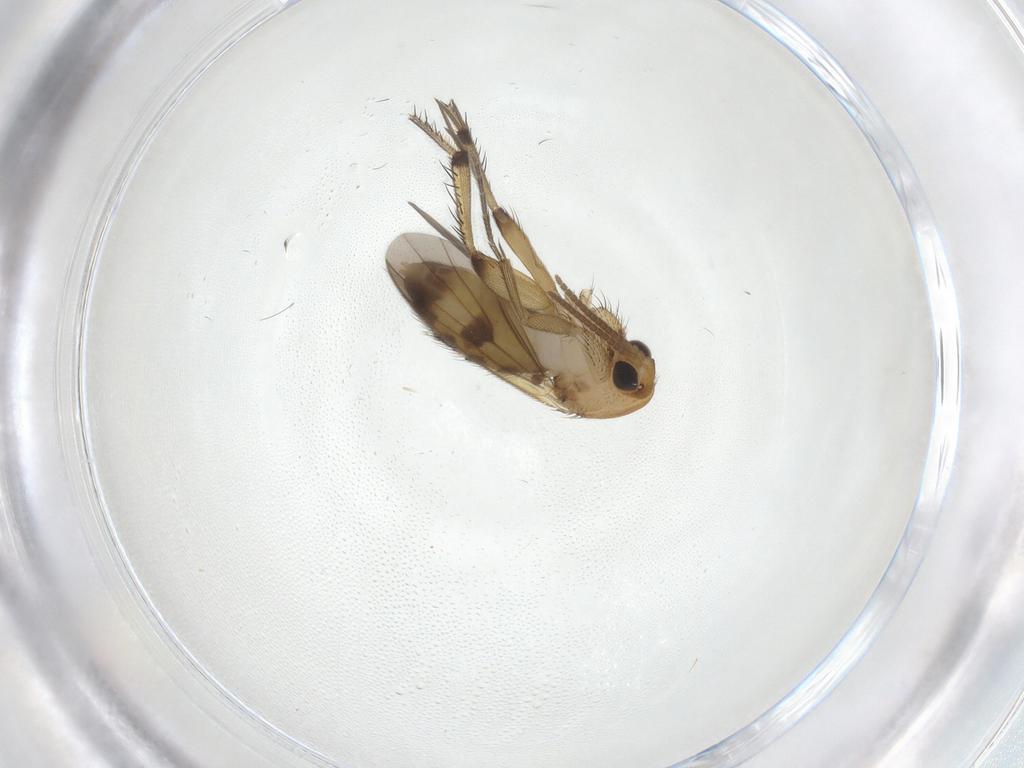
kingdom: Animalia
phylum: Arthropoda
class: Insecta
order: Diptera
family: Mycetophilidae
